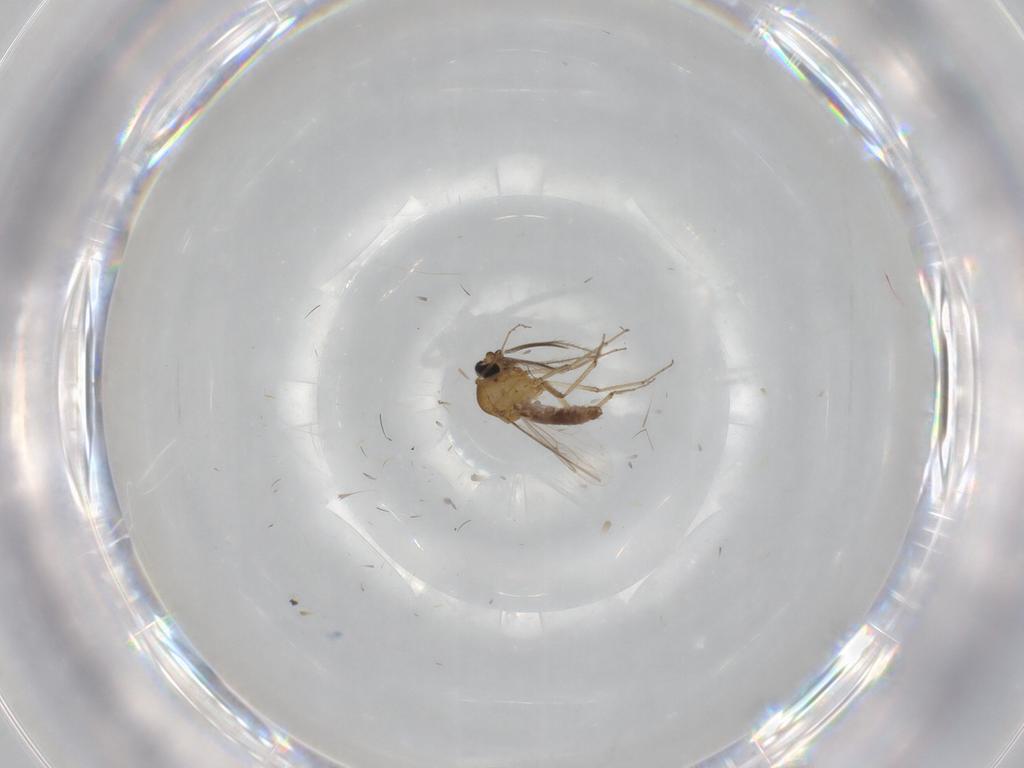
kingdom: Animalia
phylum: Arthropoda
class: Insecta
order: Diptera
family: Ceratopogonidae
